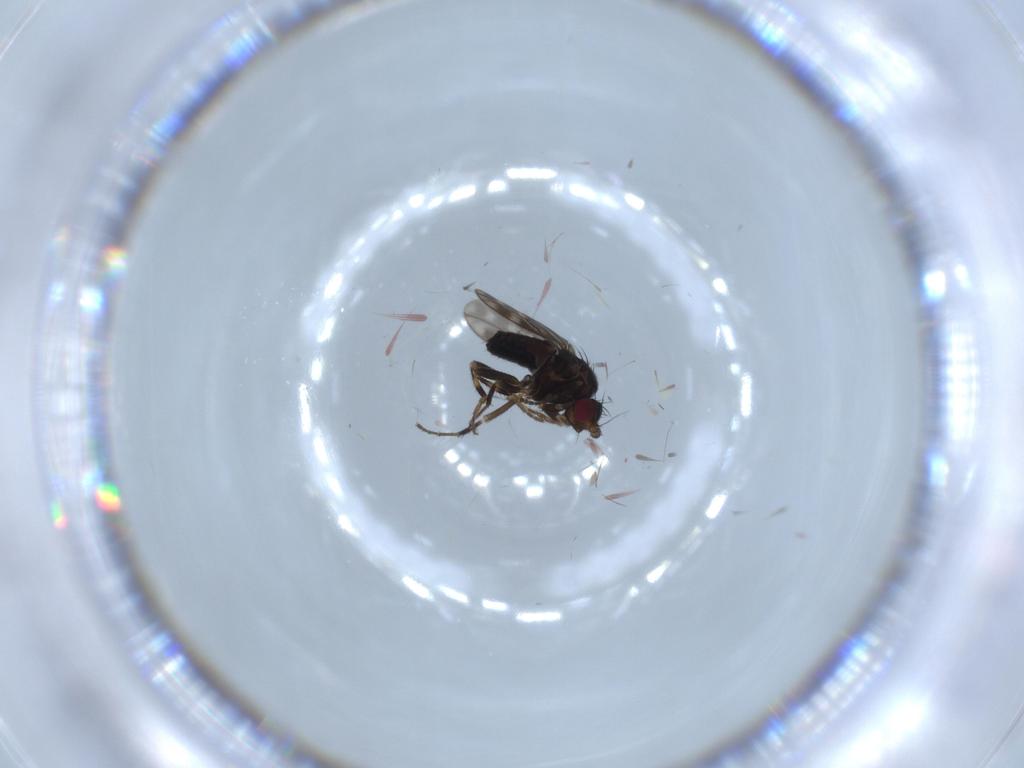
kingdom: Animalia
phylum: Arthropoda
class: Insecta
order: Diptera
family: Sphaeroceridae
